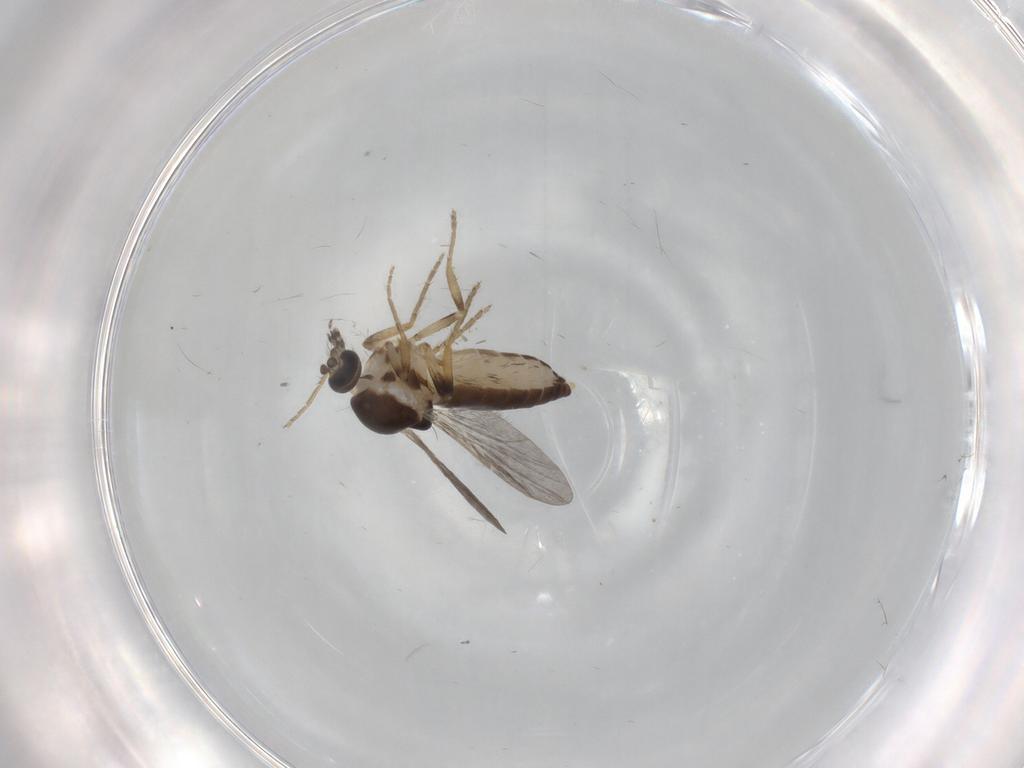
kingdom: Animalia
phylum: Arthropoda
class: Insecta
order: Diptera
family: Ceratopogonidae
